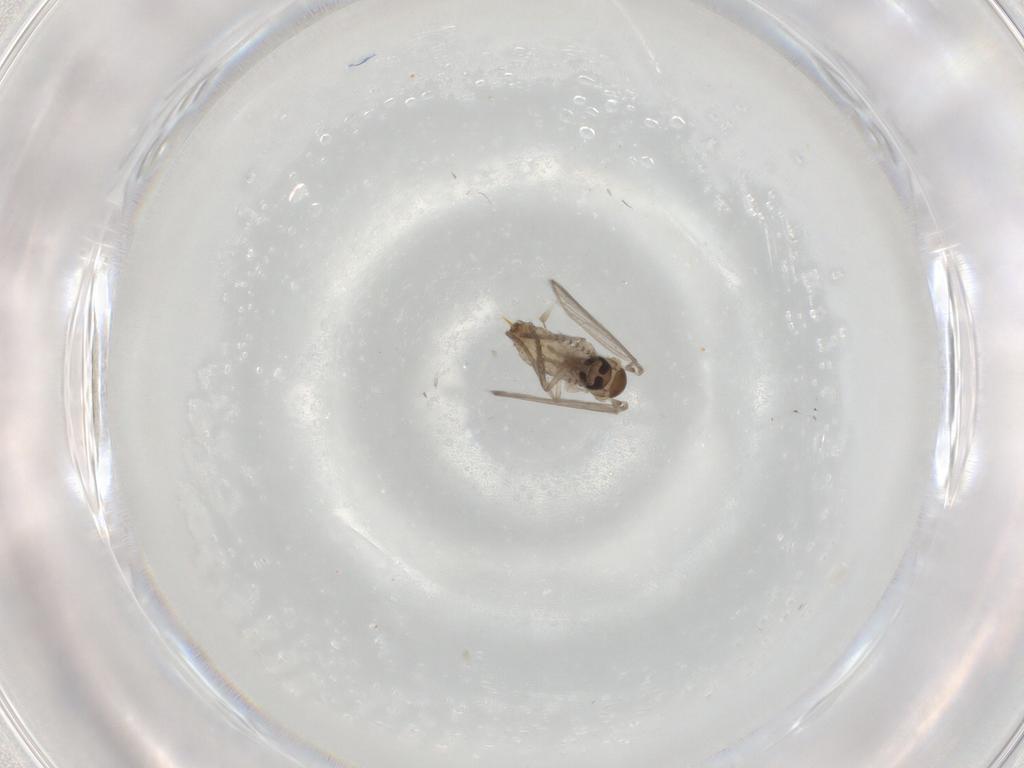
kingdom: Animalia
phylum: Arthropoda
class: Insecta
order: Diptera
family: Psychodidae
